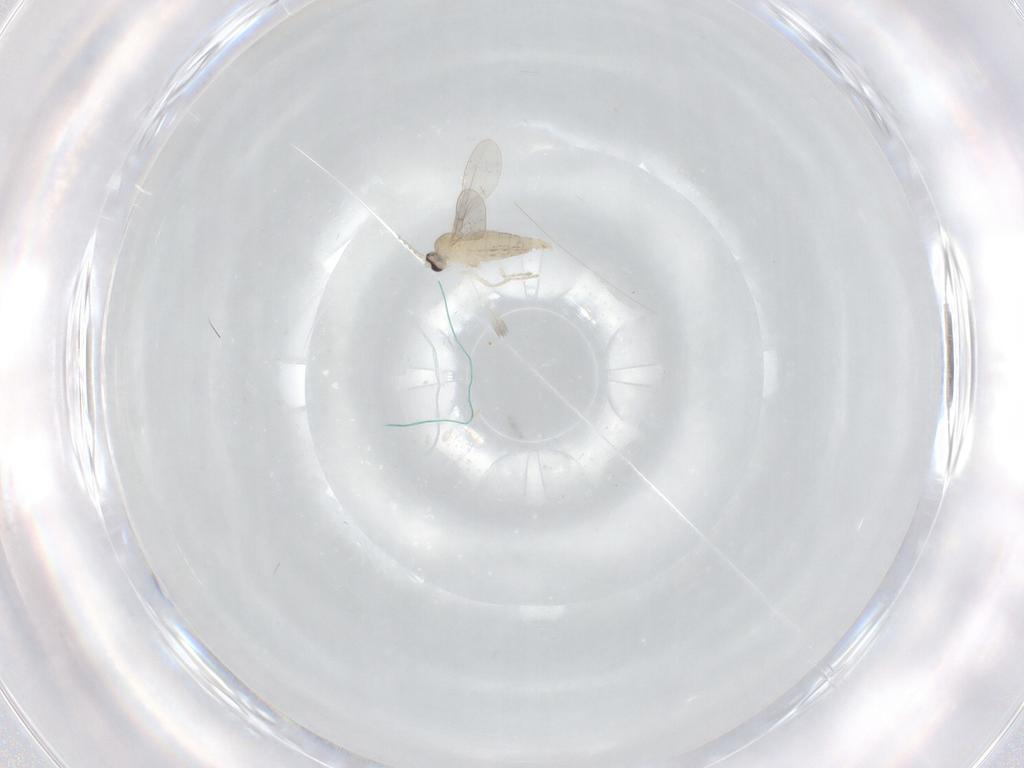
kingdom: Animalia
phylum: Arthropoda
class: Insecta
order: Diptera
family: Cecidomyiidae
